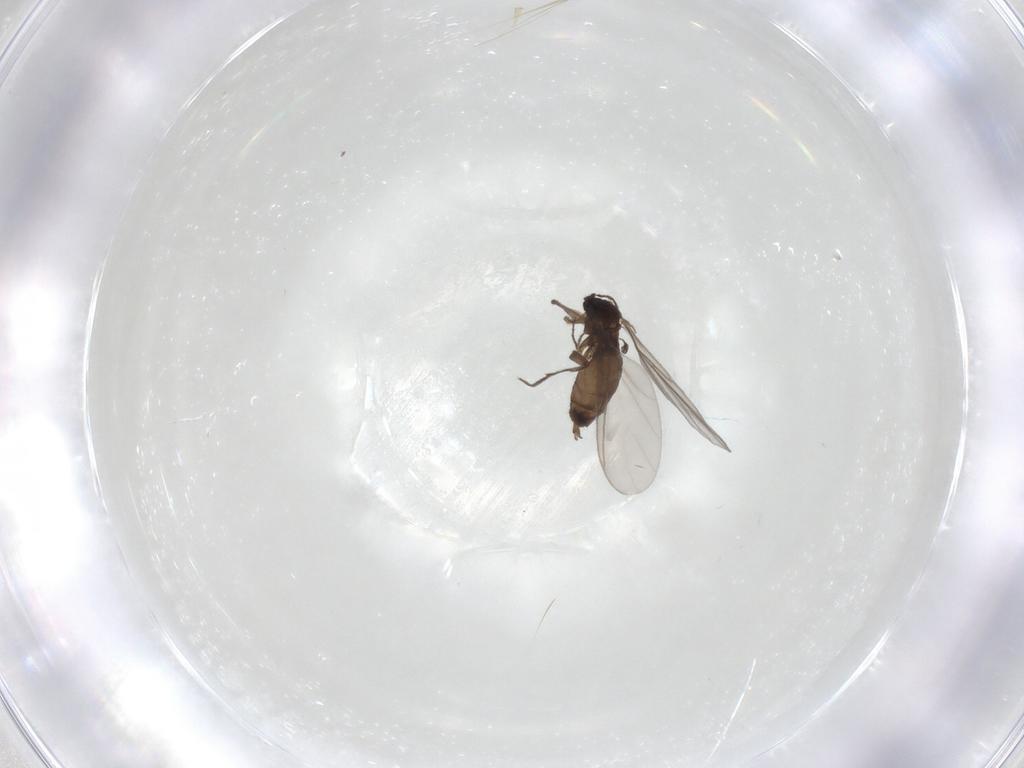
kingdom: Animalia
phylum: Arthropoda
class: Insecta
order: Diptera
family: Sciaridae
